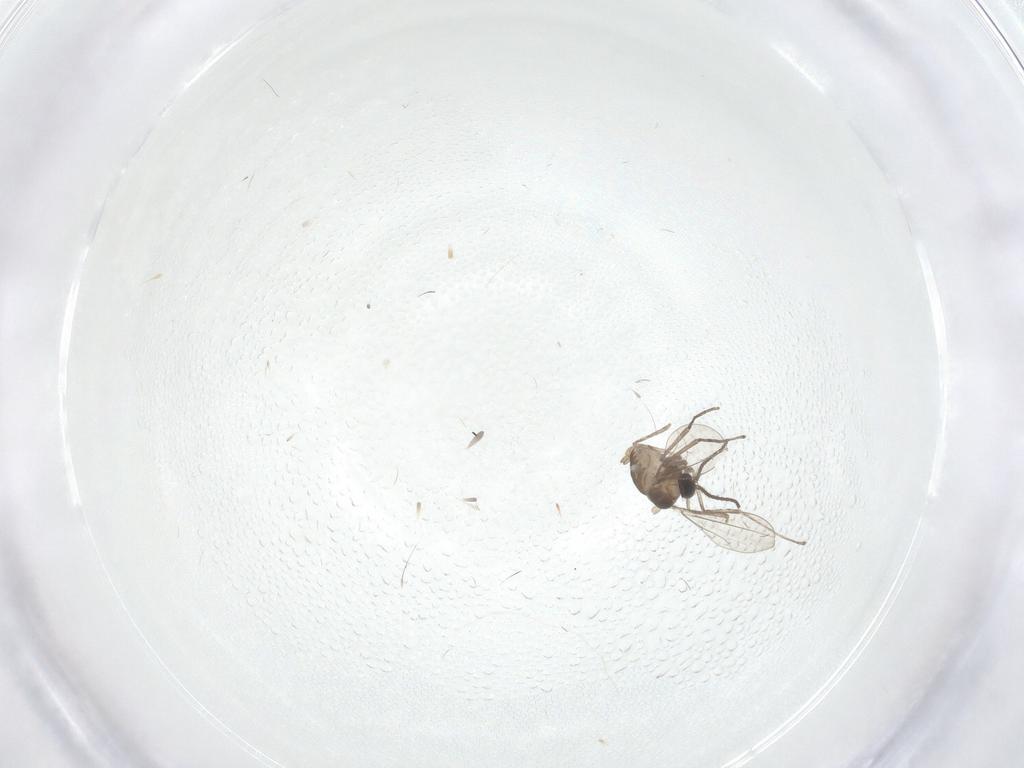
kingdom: Animalia
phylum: Arthropoda
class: Insecta
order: Diptera
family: Cecidomyiidae
